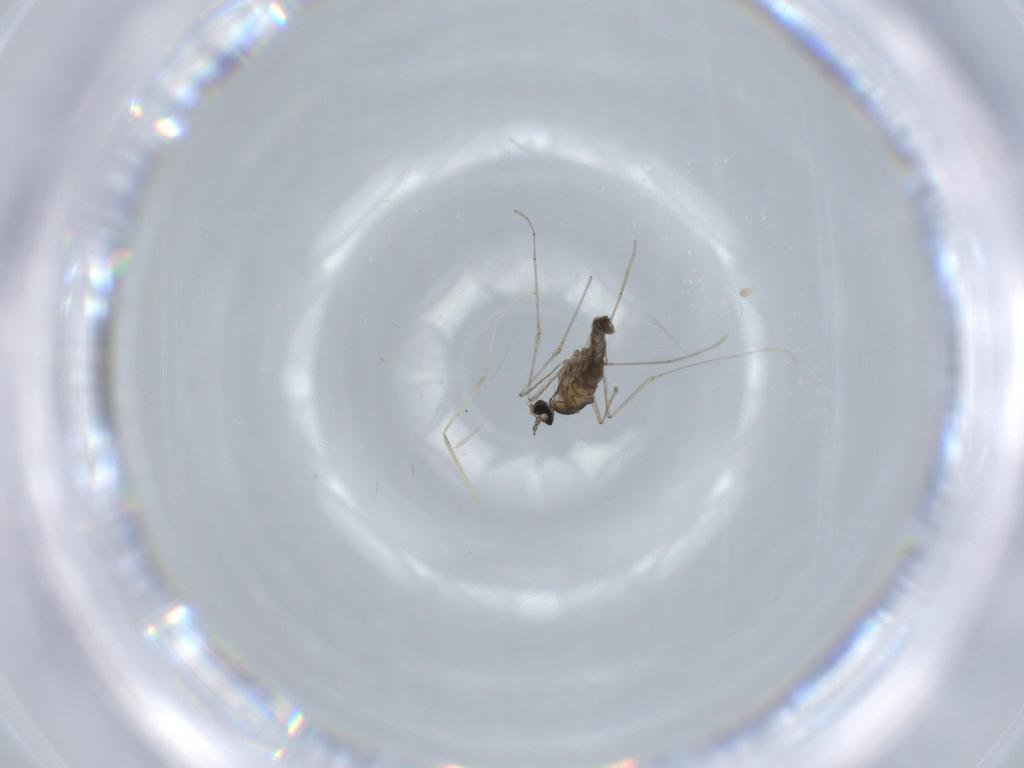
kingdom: Animalia
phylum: Arthropoda
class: Insecta
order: Diptera
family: Cecidomyiidae
